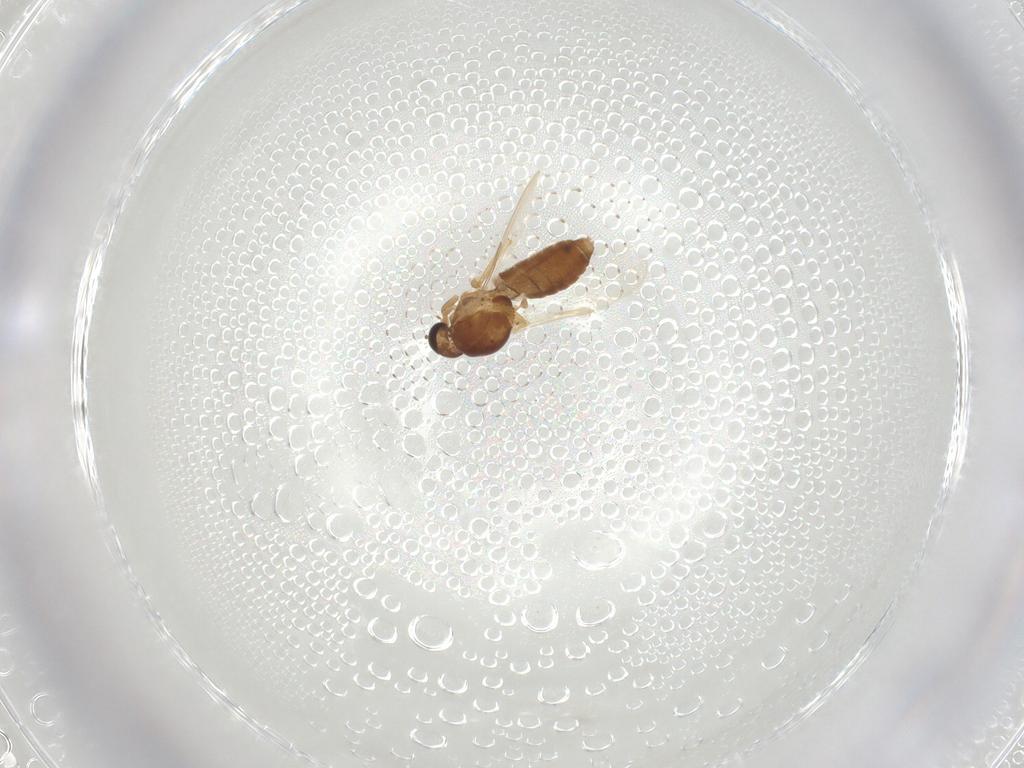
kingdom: Animalia
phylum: Arthropoda
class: Insecta
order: Diptera
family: Ceratopogonidae
